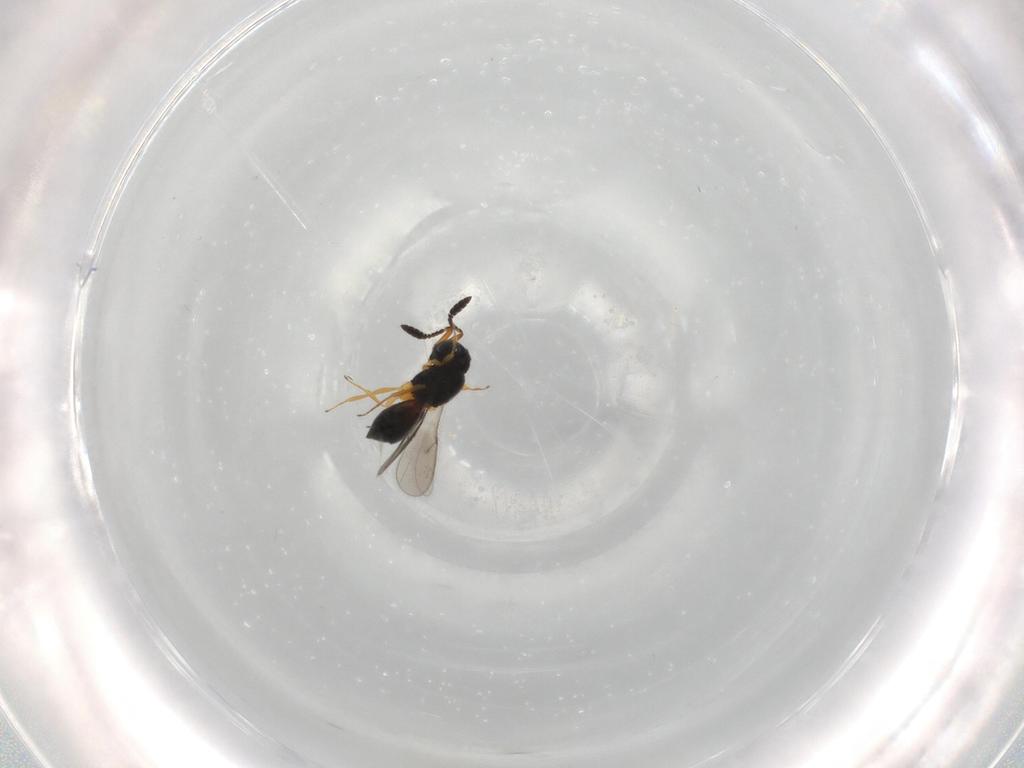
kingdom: Animalia
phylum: Arthropoda
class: Insecta
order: Hymenoptera
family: Scelionidae
